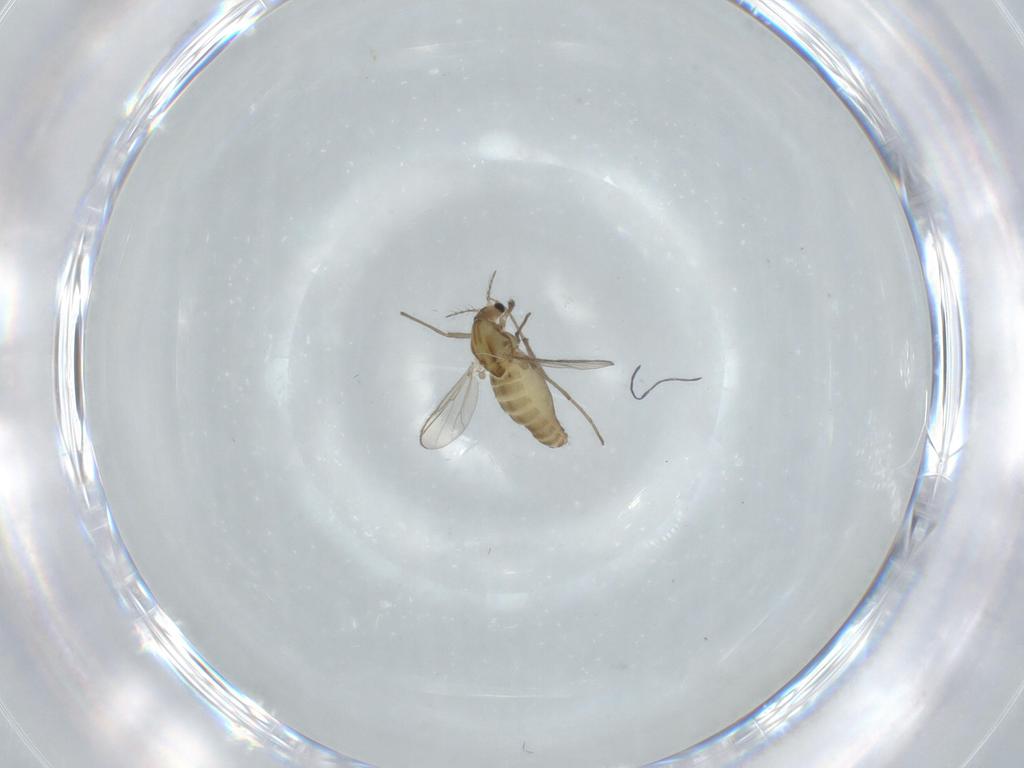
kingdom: Animalia
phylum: Arthropoda
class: Insecta
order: Diptera
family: Chironomidae
